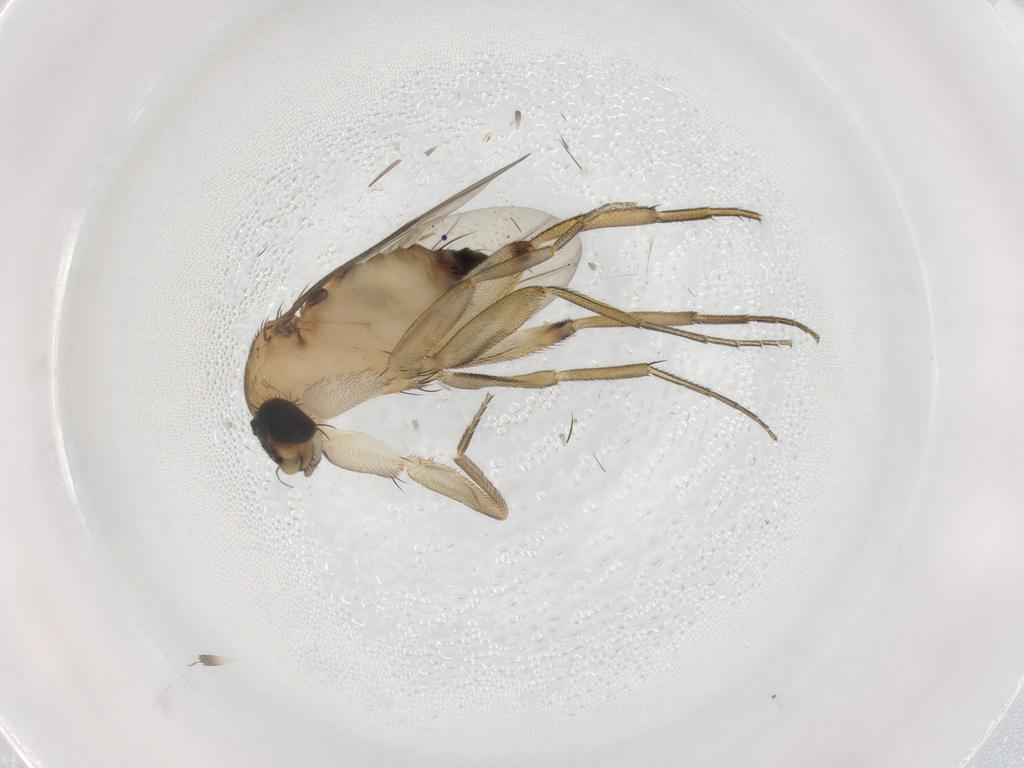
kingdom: Animalia
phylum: Arthropoda
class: Insecta
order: Diptera
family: Phoridae
